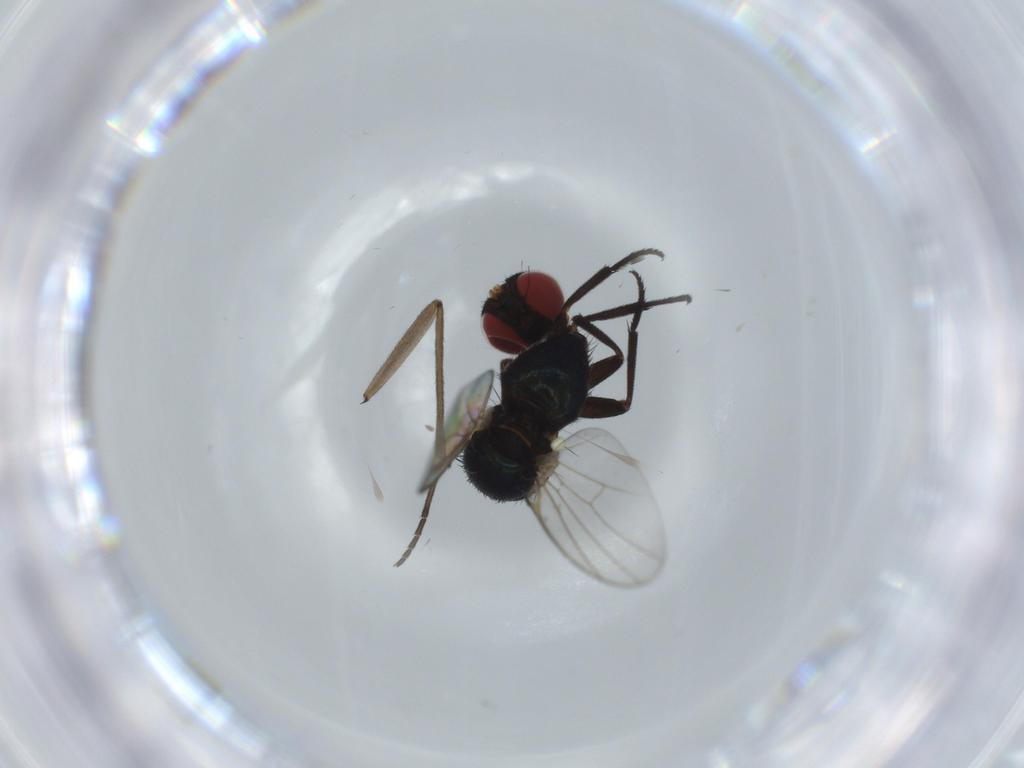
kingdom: Animalia
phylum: Arthropoda
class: Insecta
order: Diptera
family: Agromyzidae
